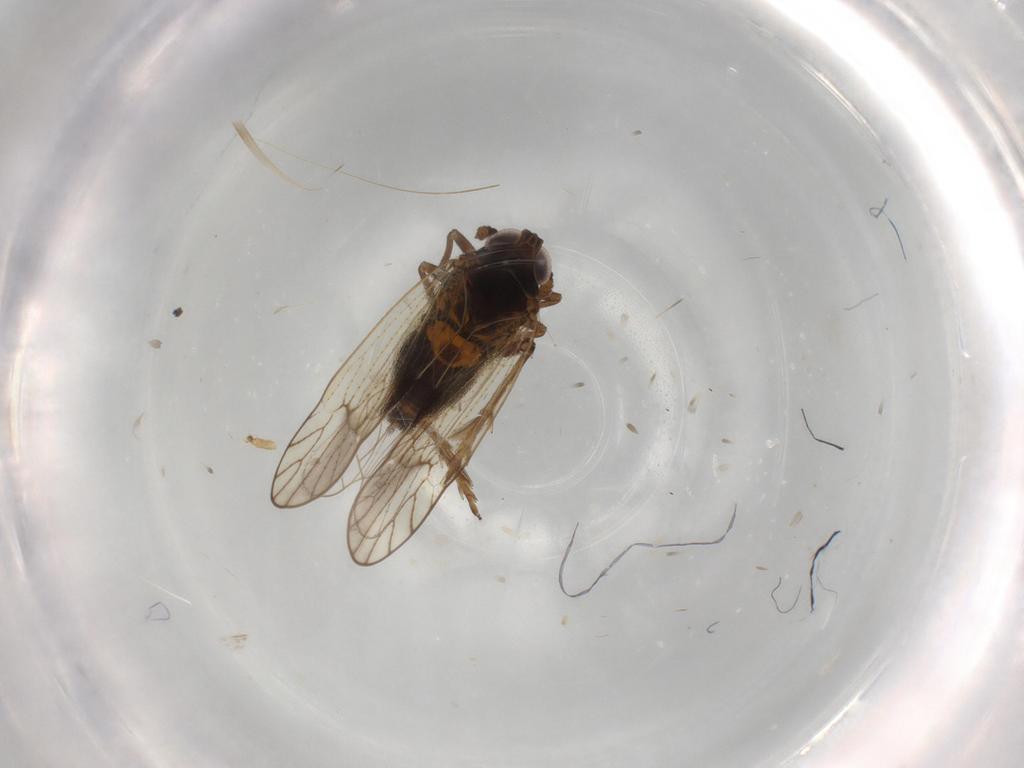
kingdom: Animalia
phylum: Arthropoda
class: Insecta
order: Hemiptera
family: Delphacidae
